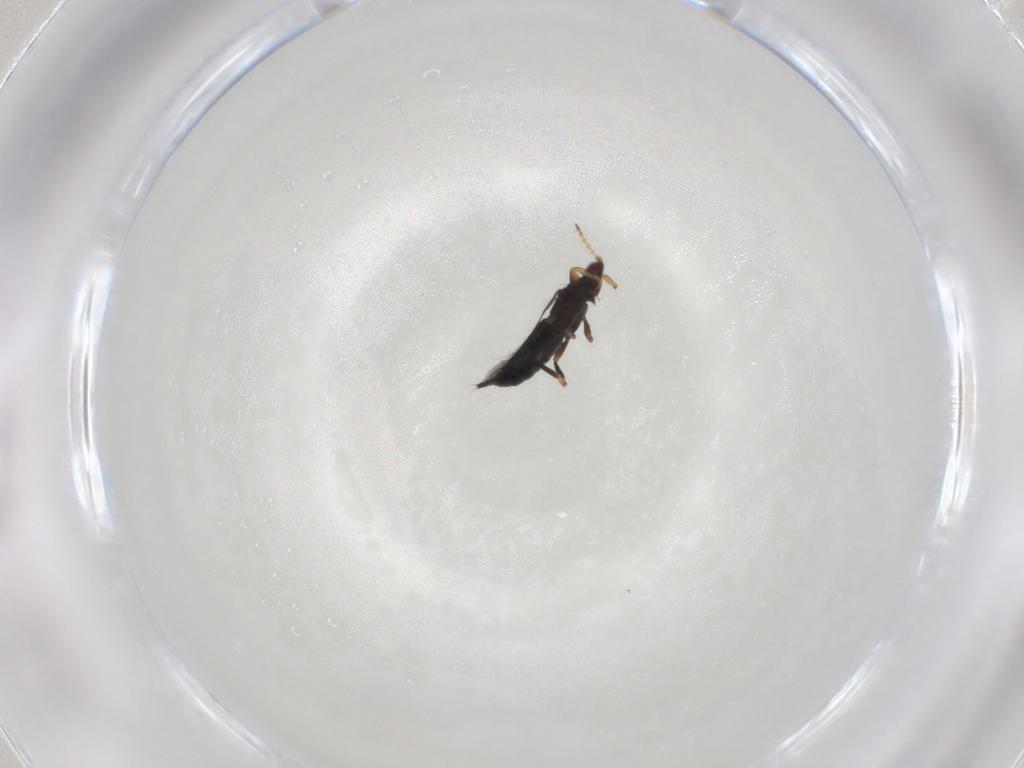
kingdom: Animalia
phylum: Arthropoda
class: Insecta
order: Thysanoptera
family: Phlaeothripidae
